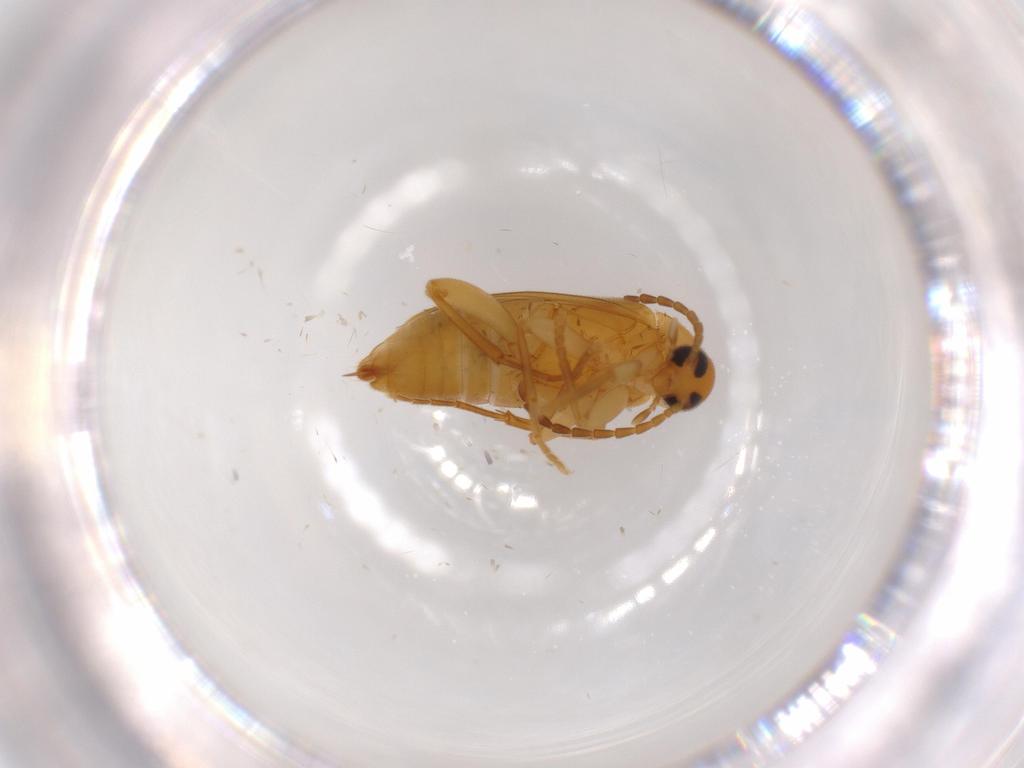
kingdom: Animalia
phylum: Arthropoda
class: Insecta
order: Coleoptera
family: Scraptiidae
